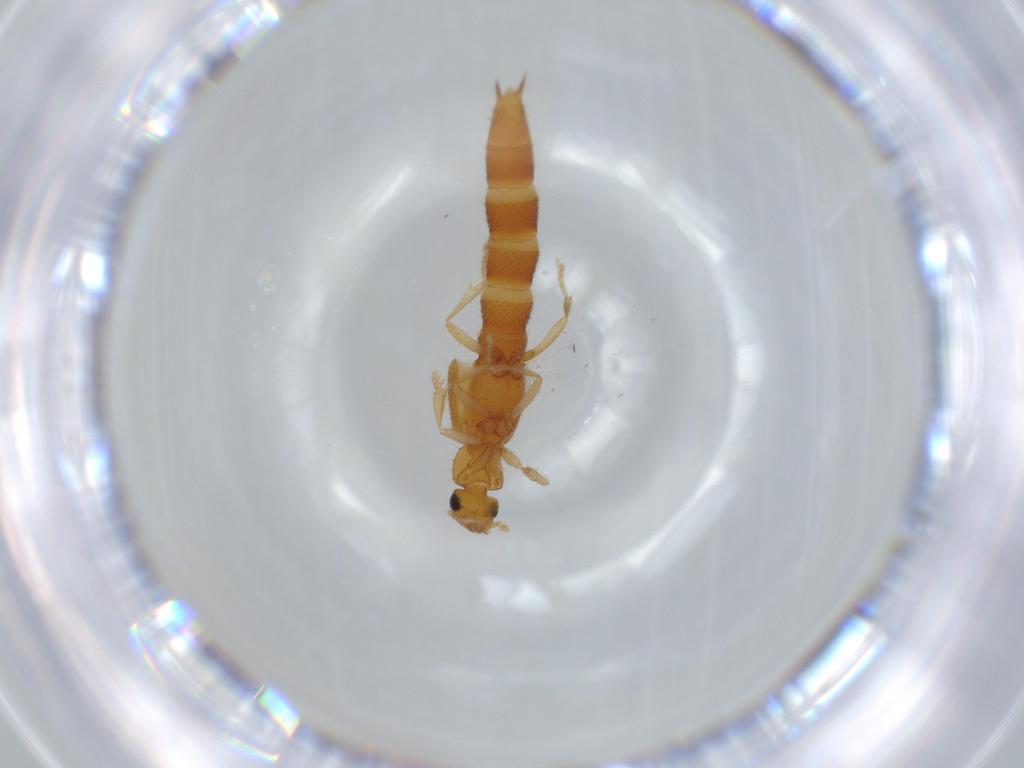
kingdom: Animalia
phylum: Arthropoda
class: Insecta
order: Coleoptera
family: Staphylinidae
